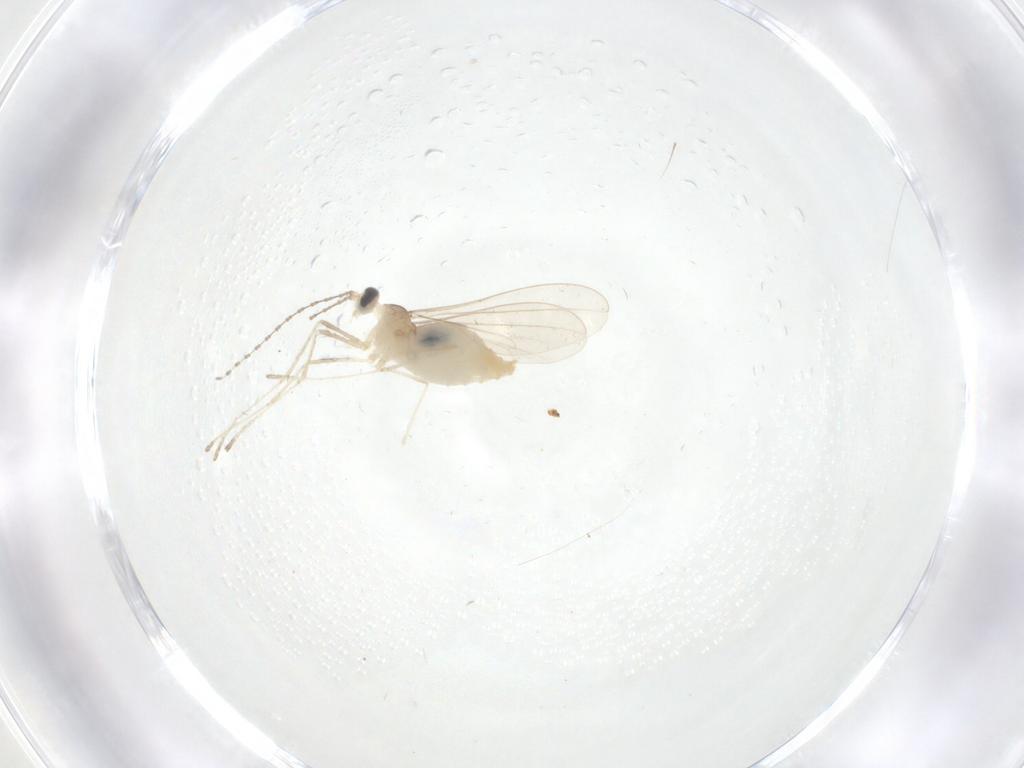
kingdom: Animalia
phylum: Arthropoda
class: Insecta
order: Diptera
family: Cecidomyiidae
